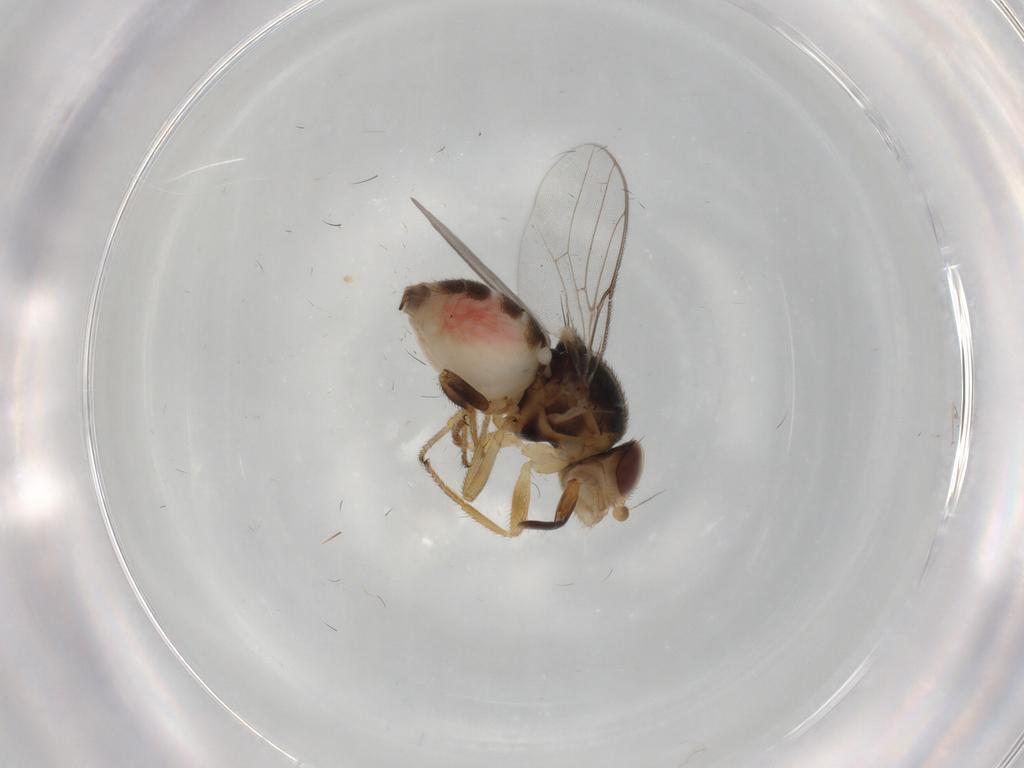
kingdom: Animalia
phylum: Arthropoda
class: Insecta
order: Diptera
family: Chloropidae
